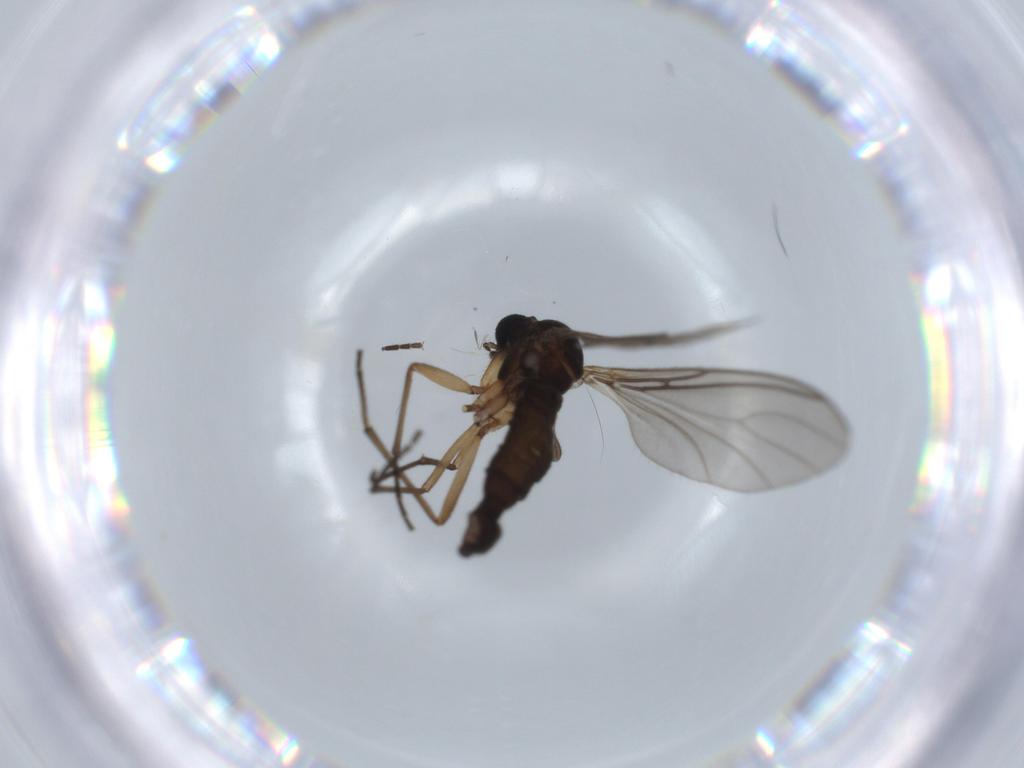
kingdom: Animalia
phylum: Arthropoda
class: Insecta
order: Diptera
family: Sciaridae
